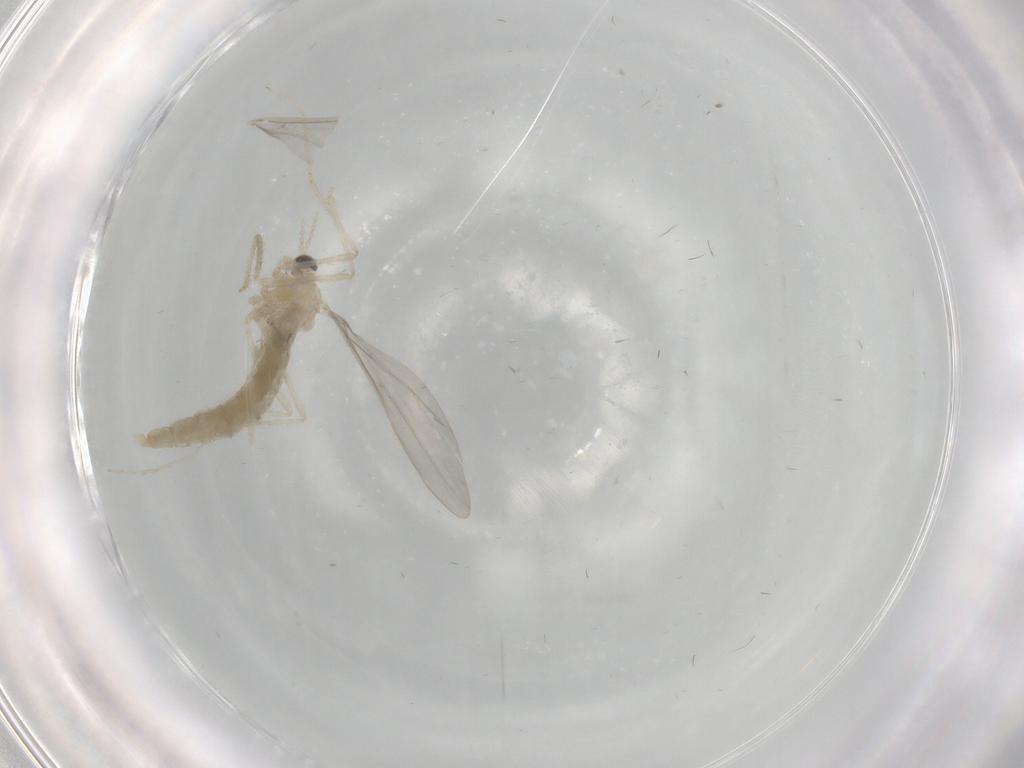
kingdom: Animalia
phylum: Arthropoda
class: Insecta
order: Diptera
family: Cecidomyiidae
